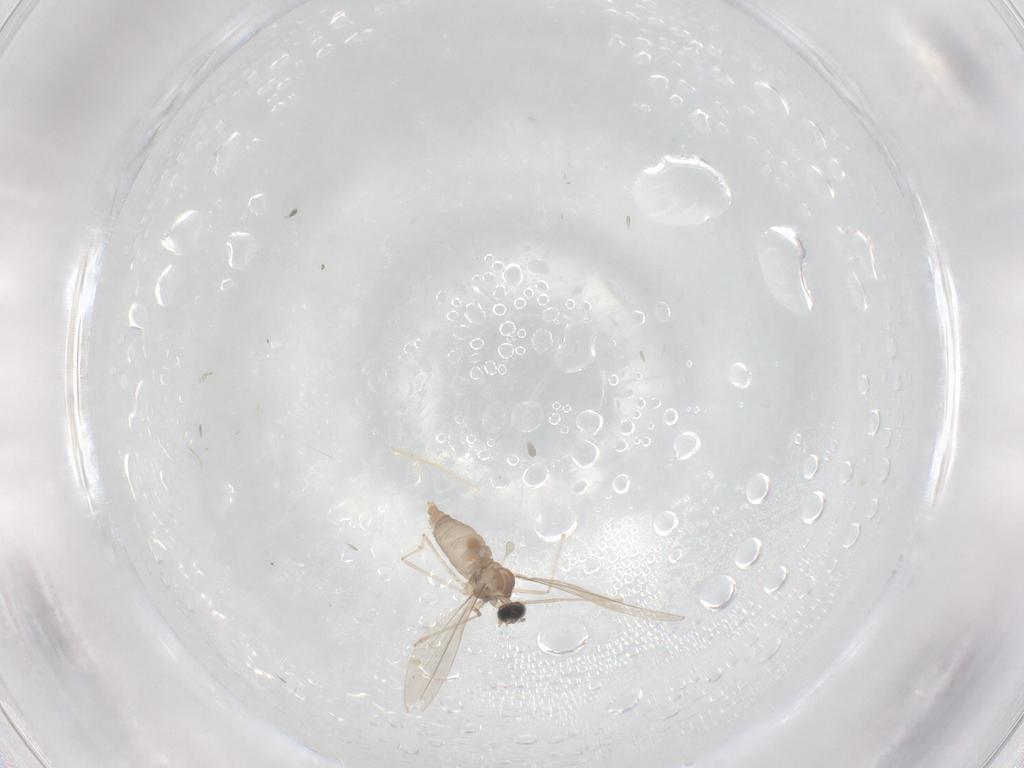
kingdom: Animalia
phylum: Arthropoda
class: Insecta
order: Diptera
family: Cecidomyiidae
